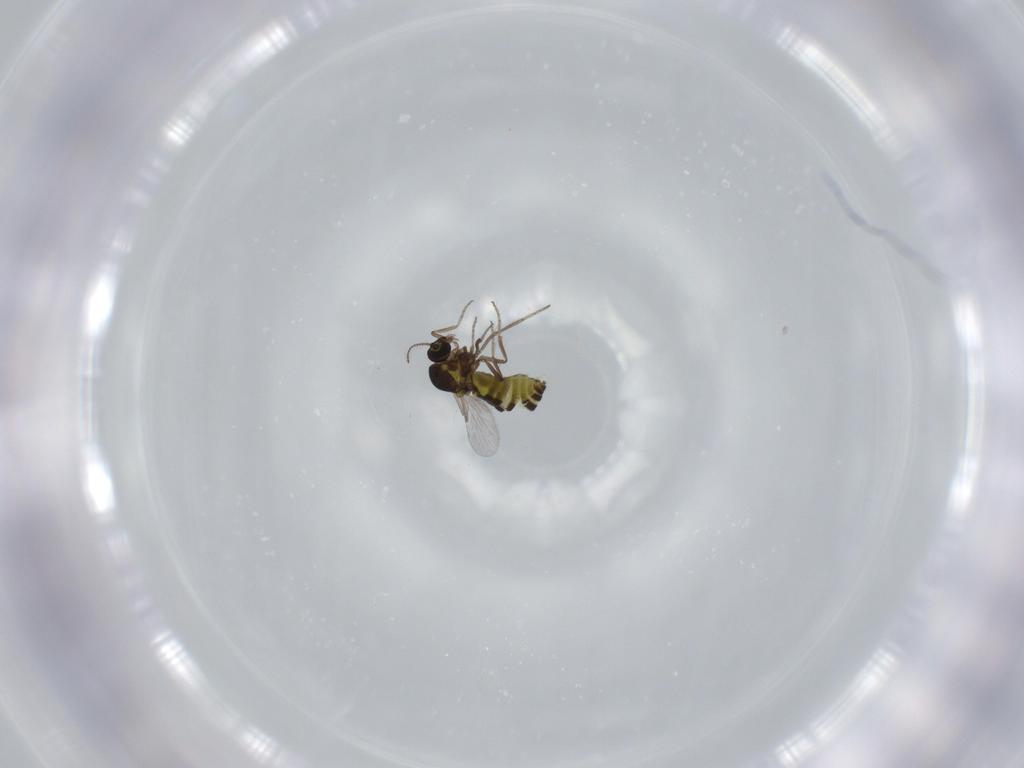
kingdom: Animalia
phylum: Arthropoda
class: Insecta
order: Diptera
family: Ceratopogonidae
